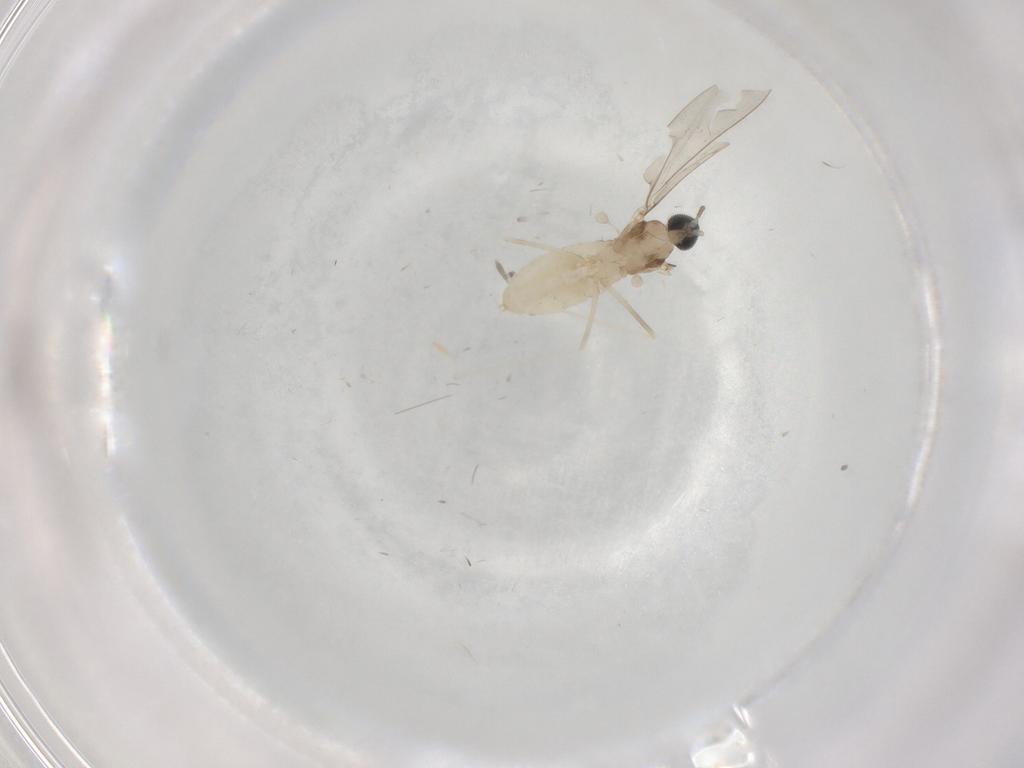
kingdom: Animalia
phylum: Arthropoda
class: Insecta
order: Diptera
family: Cecidomyiidae
